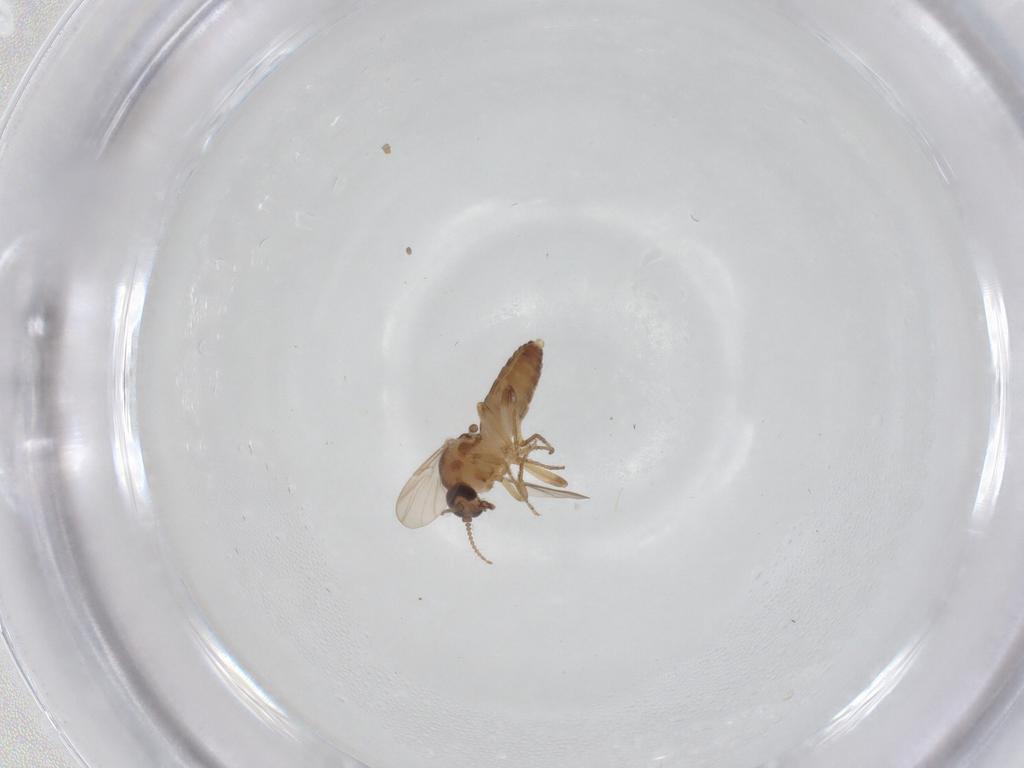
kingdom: Animalia
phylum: Arthropoda
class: Insecta
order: Diptera
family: Ceratopogonidae
